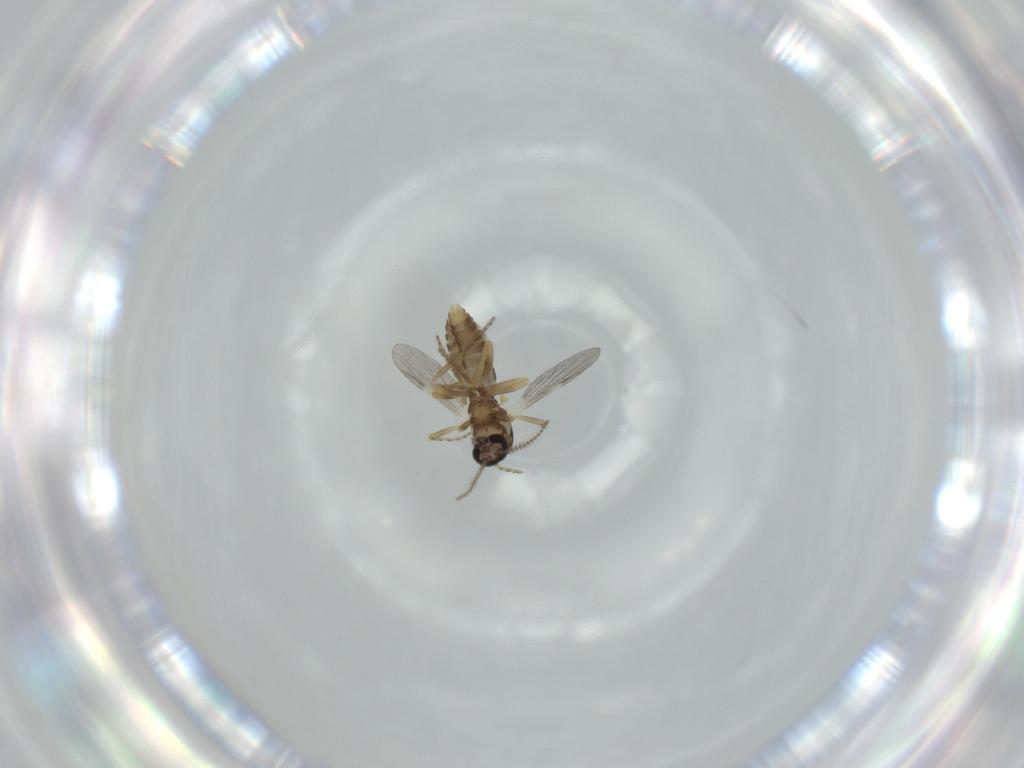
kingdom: Animalia
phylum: Arthropoda
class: Insecta
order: Diptera
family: Ceratopogonidae
